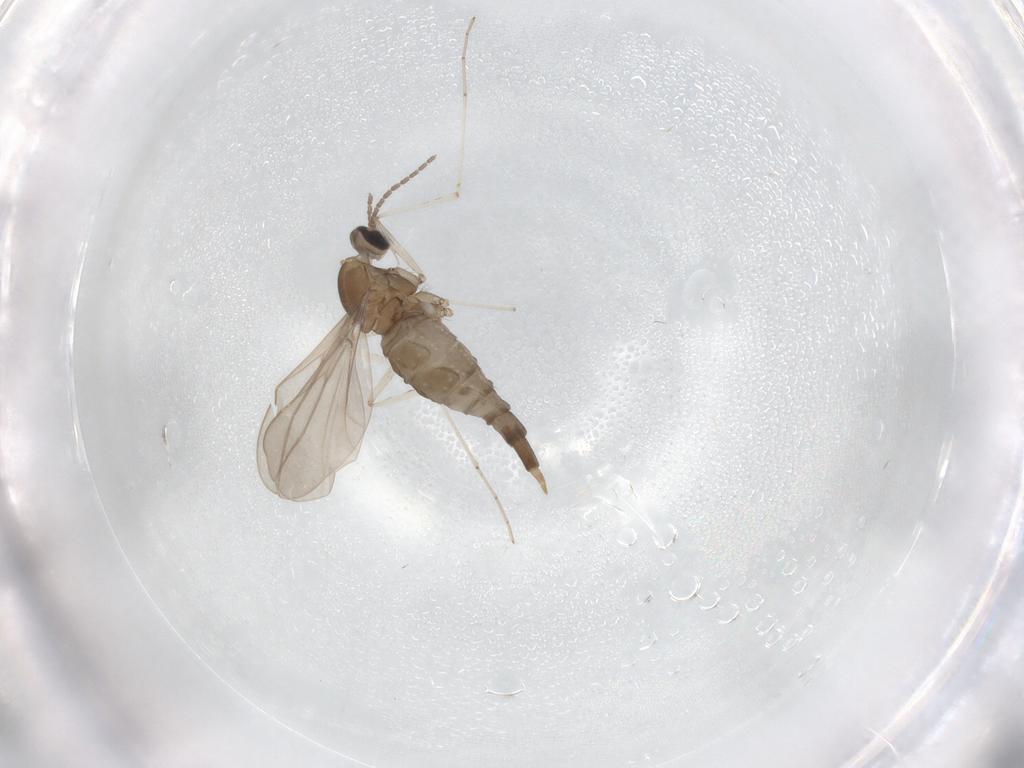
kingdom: Animalia
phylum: Arthropoda
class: Insecta
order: Diptera
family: Cecidomyiidae
